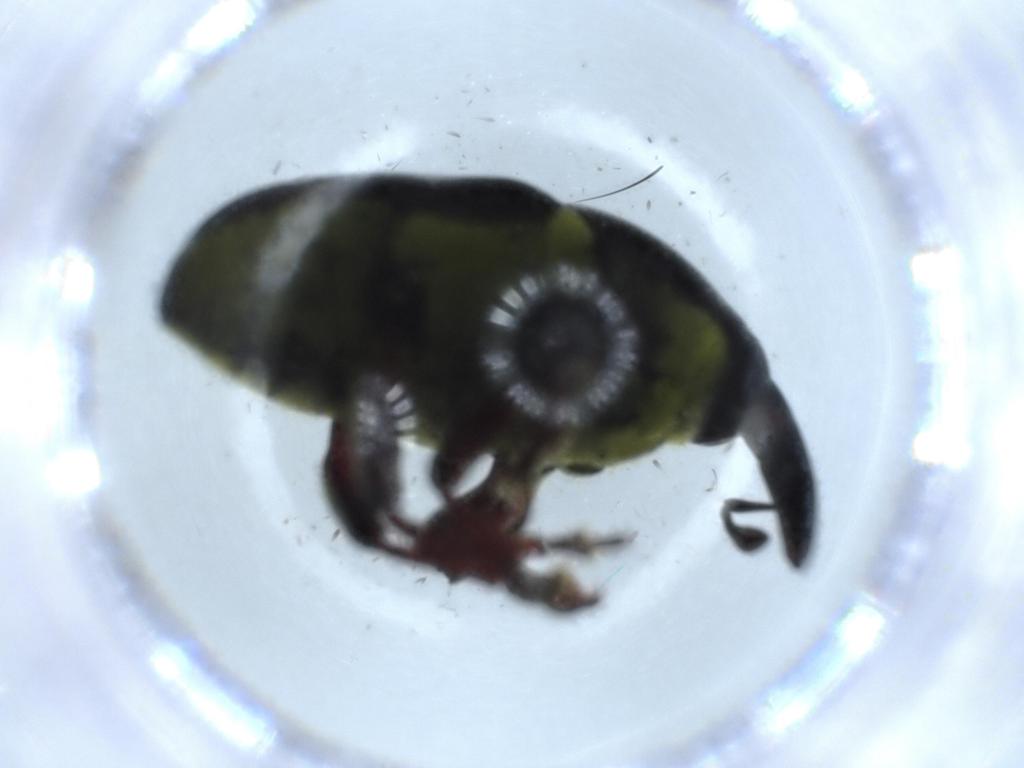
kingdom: Animalia
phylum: Arthropoda
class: Insecta
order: Coleoptera
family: Curculionidae
